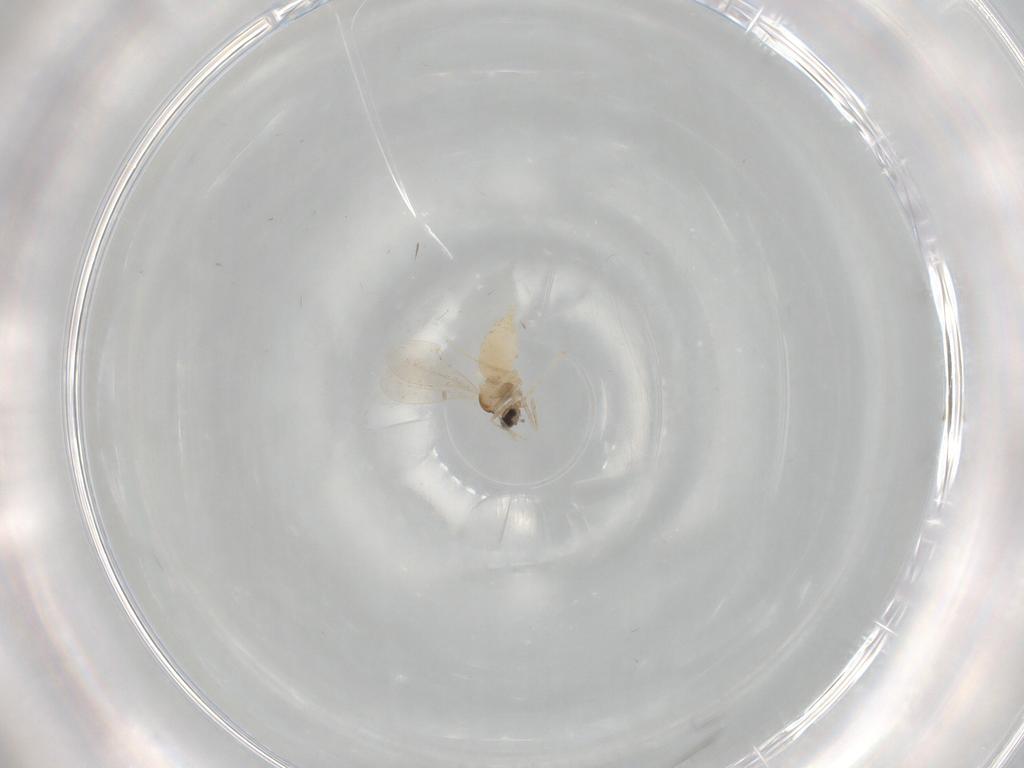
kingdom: Animalia
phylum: Arthropoda
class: Insecta
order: Diptera
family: Cecidomyiidae
